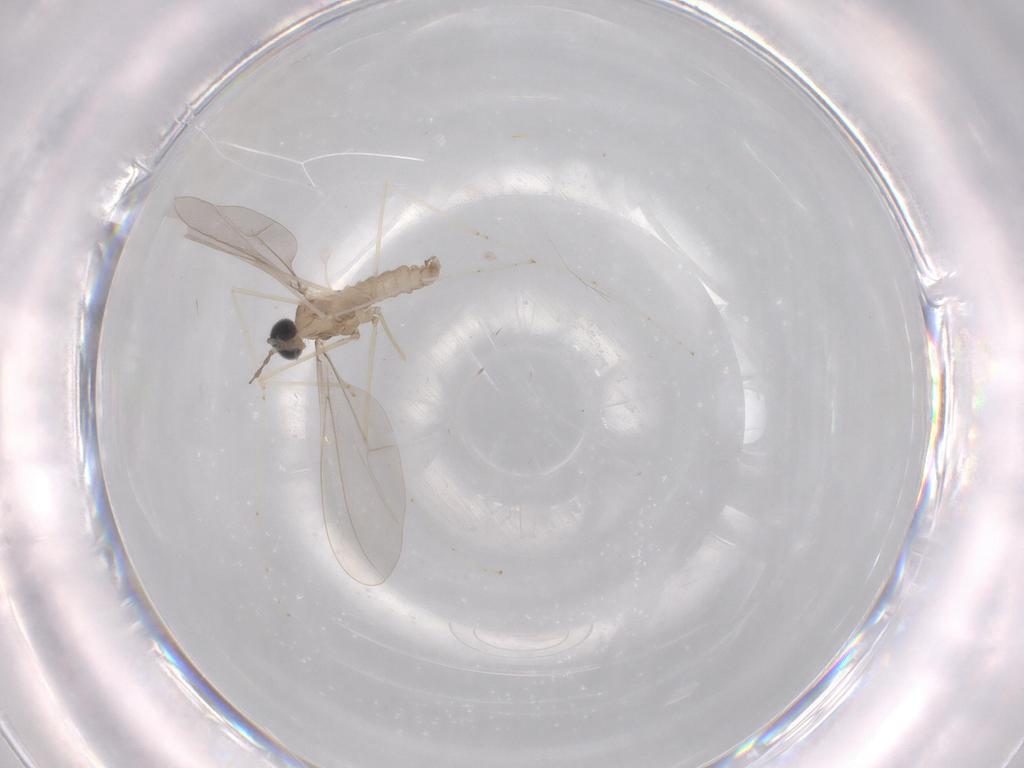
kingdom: Animalia
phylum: Arthropoda
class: Insecta
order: Diptera
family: Cecidomyiidae
